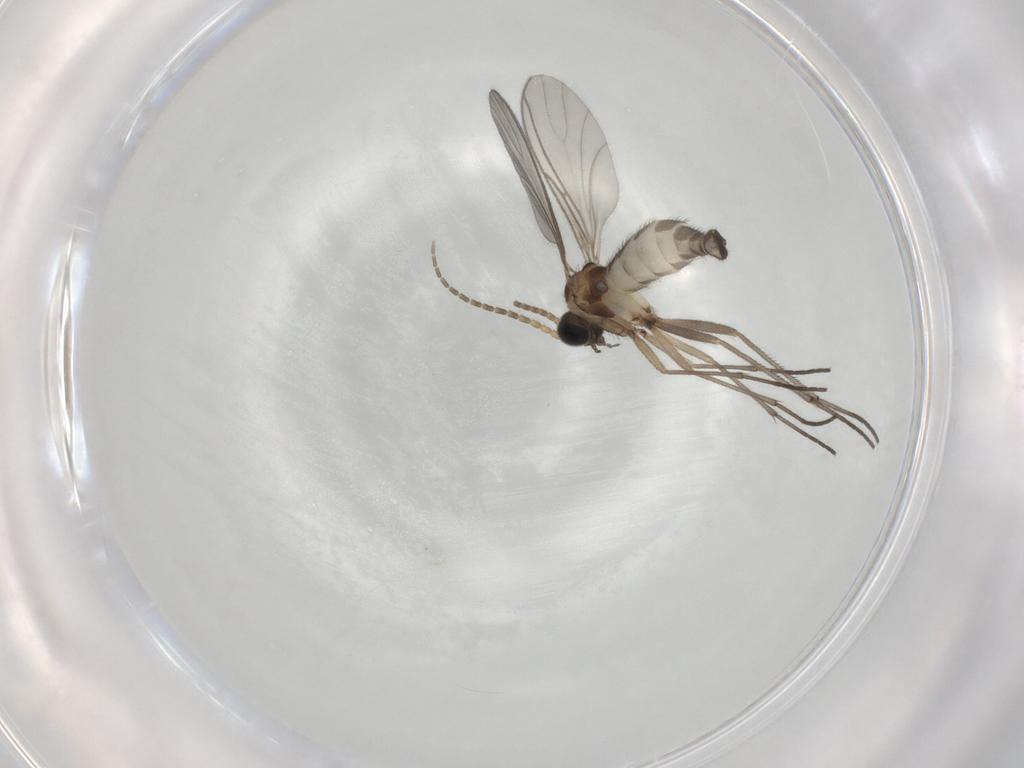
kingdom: Animalia
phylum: Arthropoda
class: Insecta
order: Diptera
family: Sciaridae
